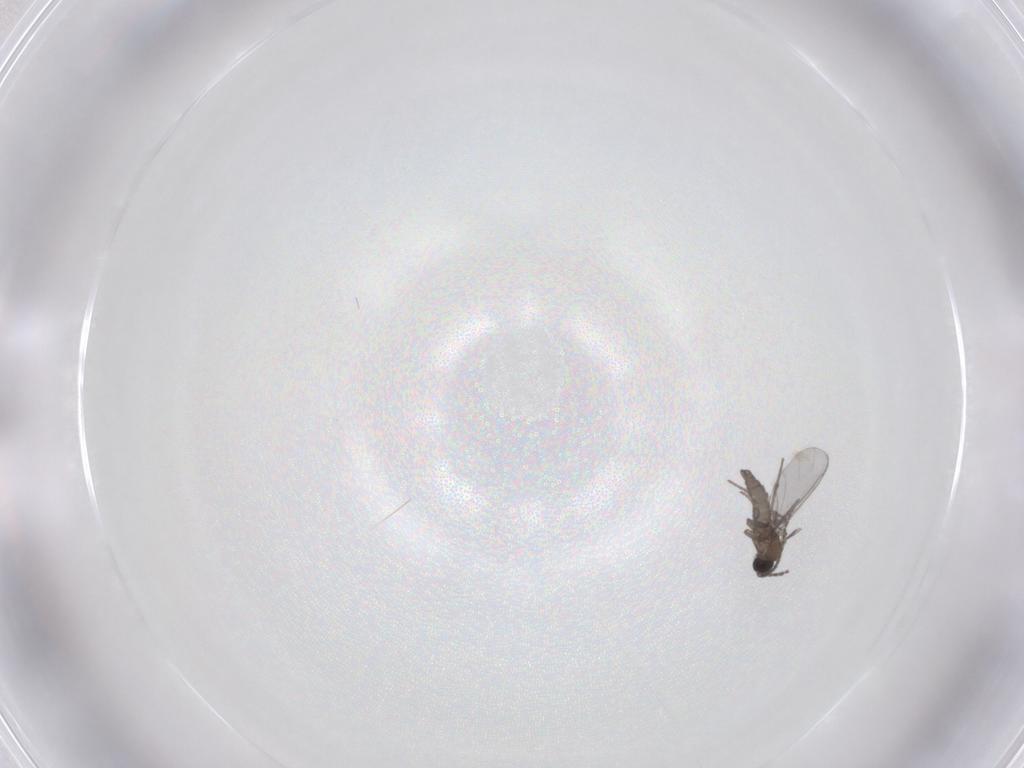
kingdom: Animalia
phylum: Arthropoda
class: Insecta
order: Diptera
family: Sciaridae
